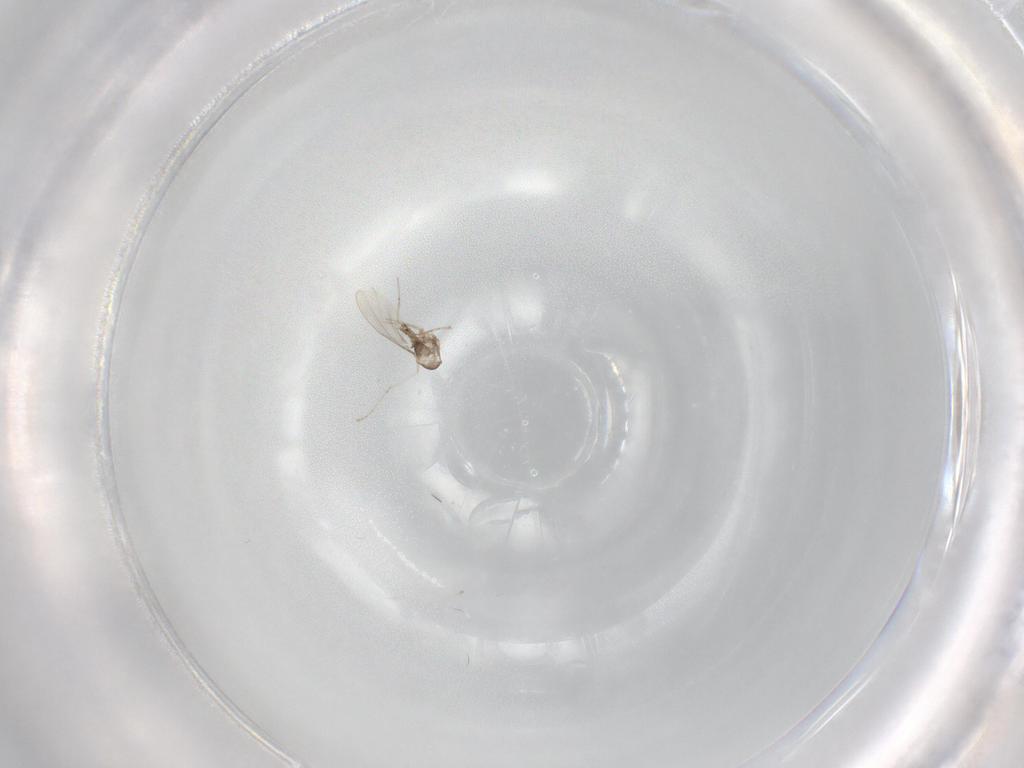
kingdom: Animalia
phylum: Arthropoda
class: Insecta
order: Diptera
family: Cecidomyiidae
